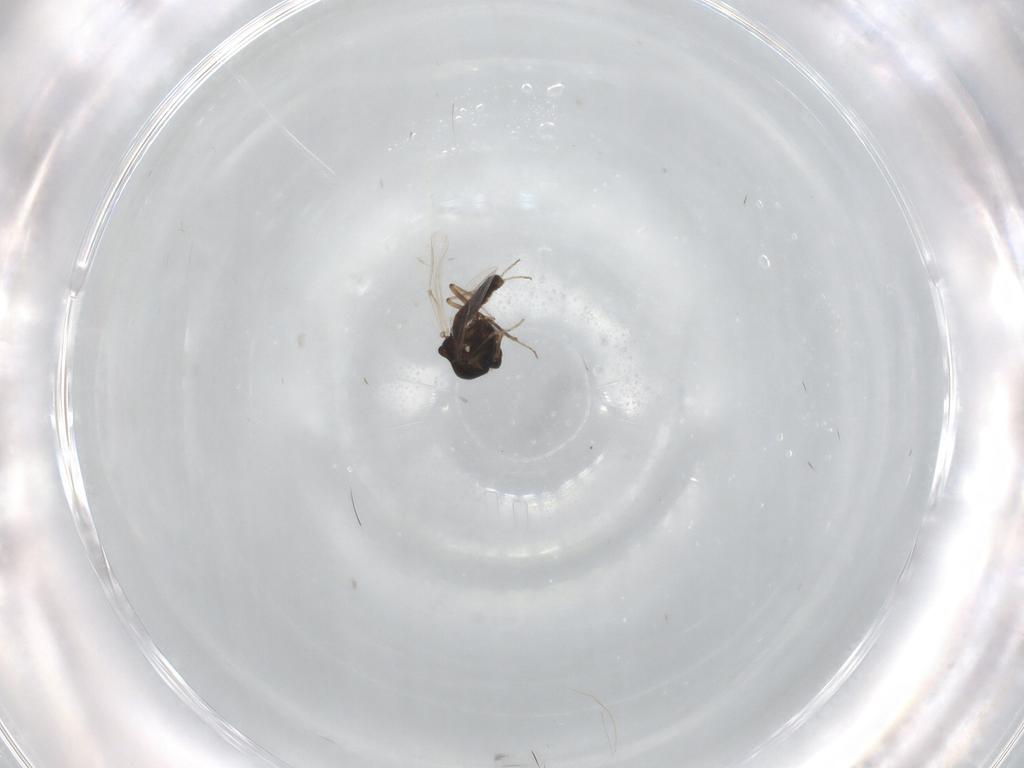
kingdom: Animalia
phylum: Arthropoda
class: Insecta
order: Diptera
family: Ceratopogonidae
